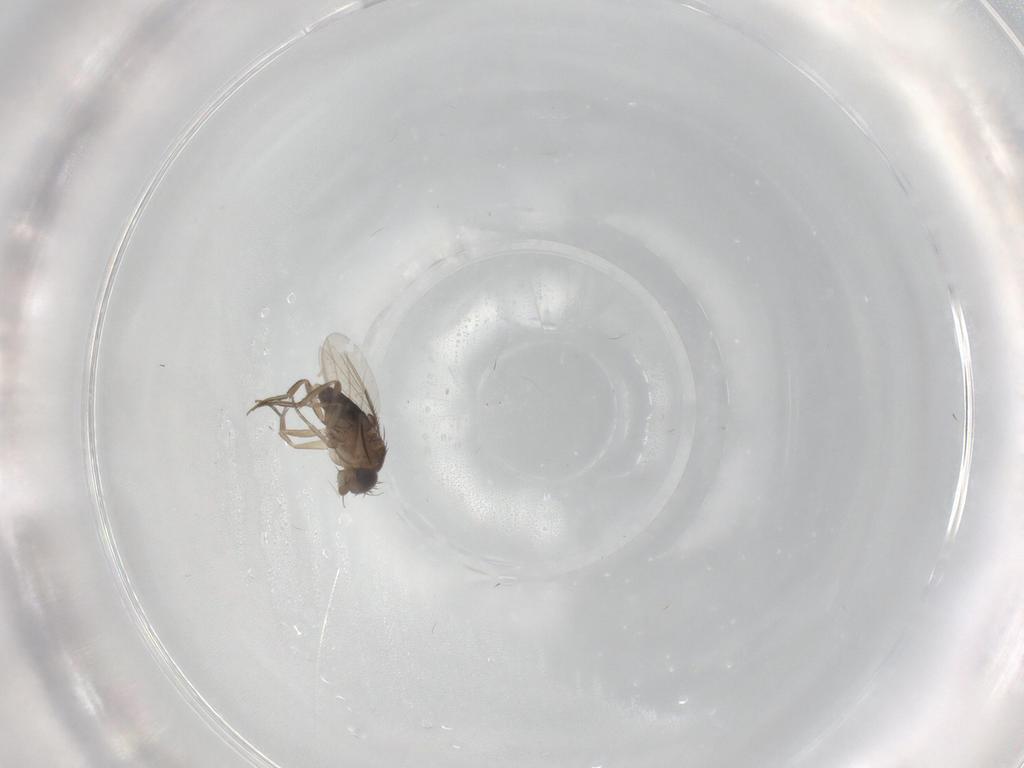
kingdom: Animalia
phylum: Arthropoda
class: Insecta
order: Diptera
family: Phoridae
